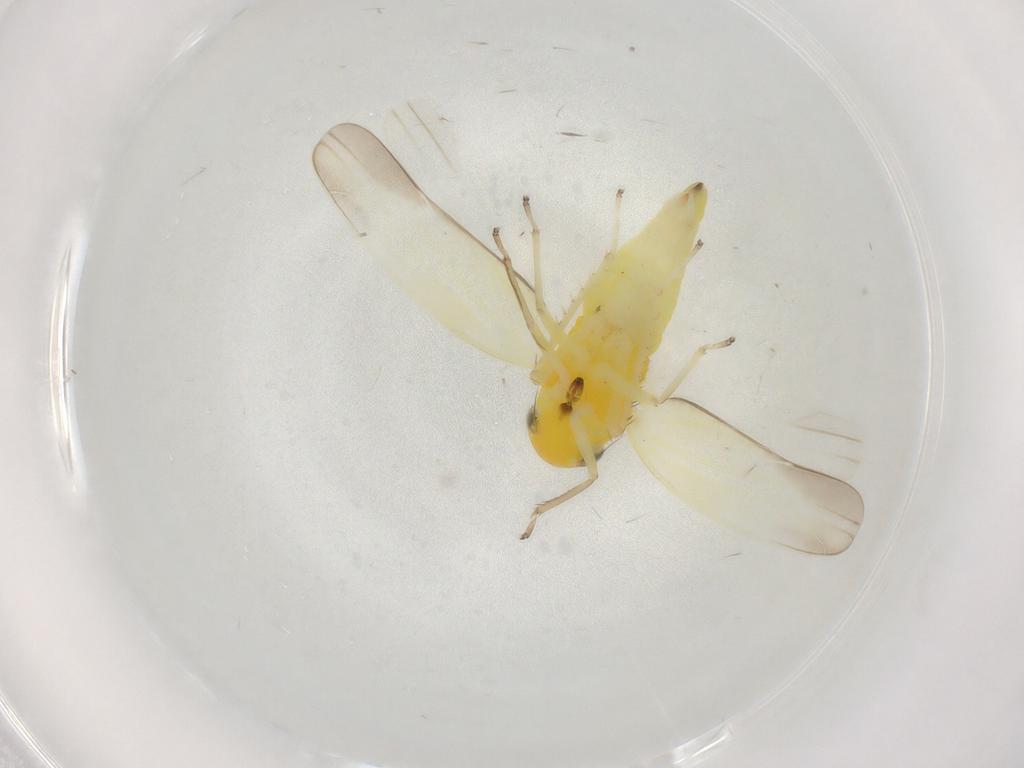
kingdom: Animalia
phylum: Arthropoda
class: Insecta
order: Hemiptera
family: Cicadellidae
